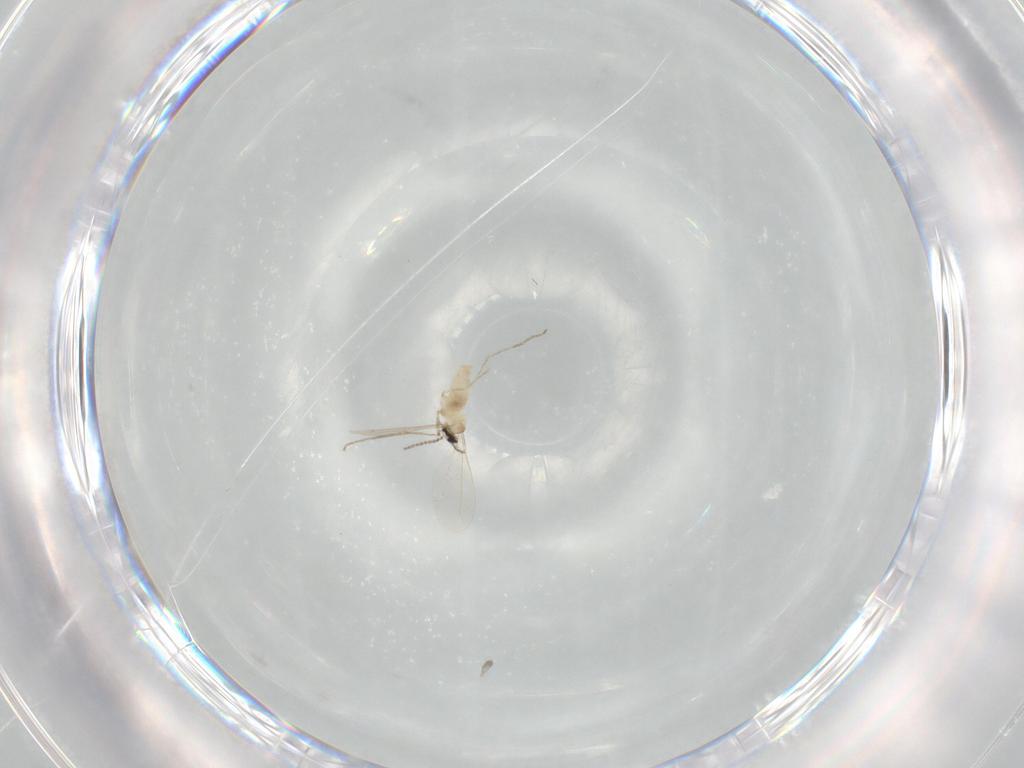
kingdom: Animalia
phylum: Arthropoda
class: Insecta
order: Diptera
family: Cecidomyiidae
